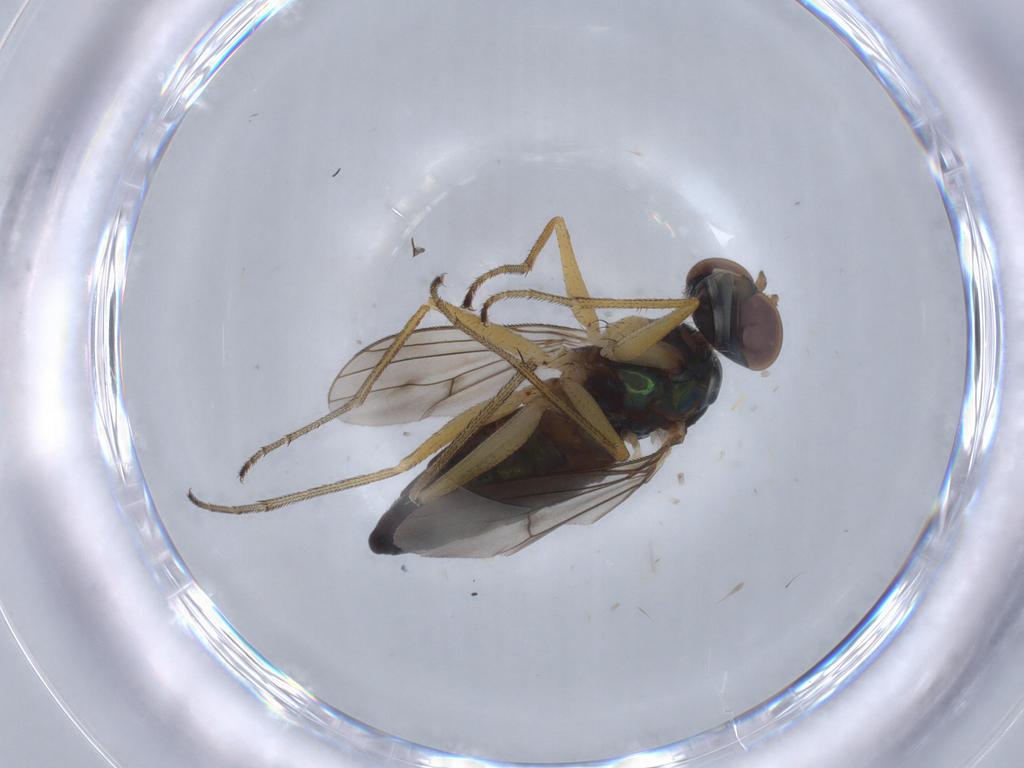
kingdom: Animalia
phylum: Arthropoda
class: Insecta
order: Diptera
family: Dolichopodidae
